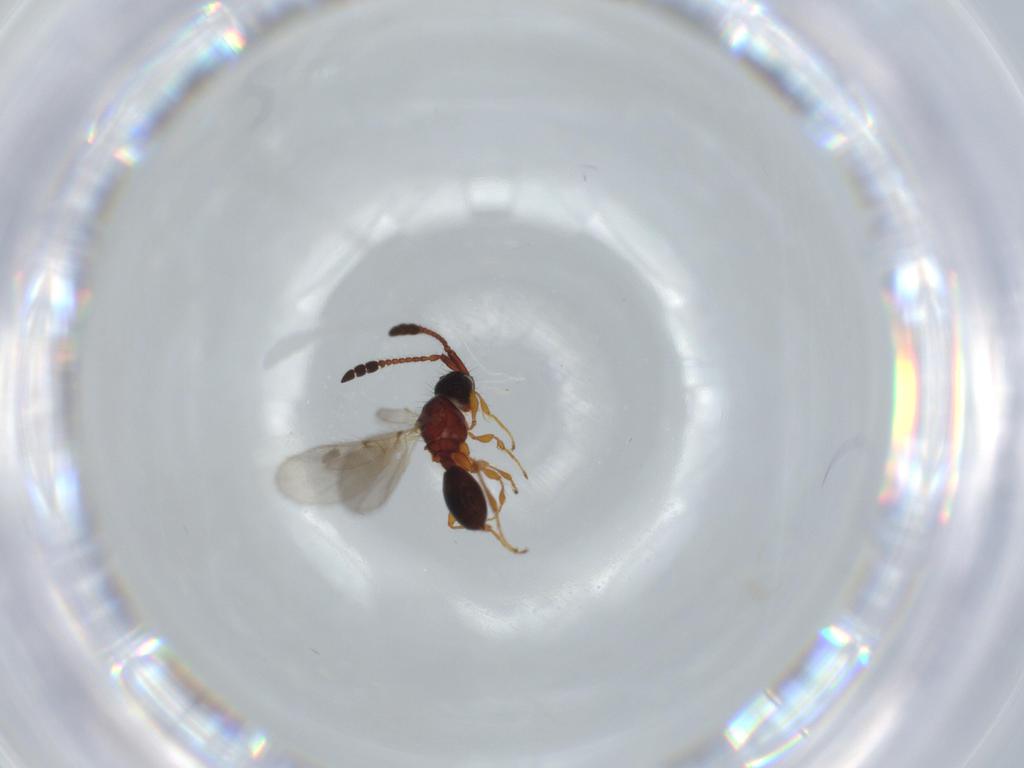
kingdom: Animalia
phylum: Arthropoda
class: Insecta
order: Hymenoptera
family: Diapriidae
